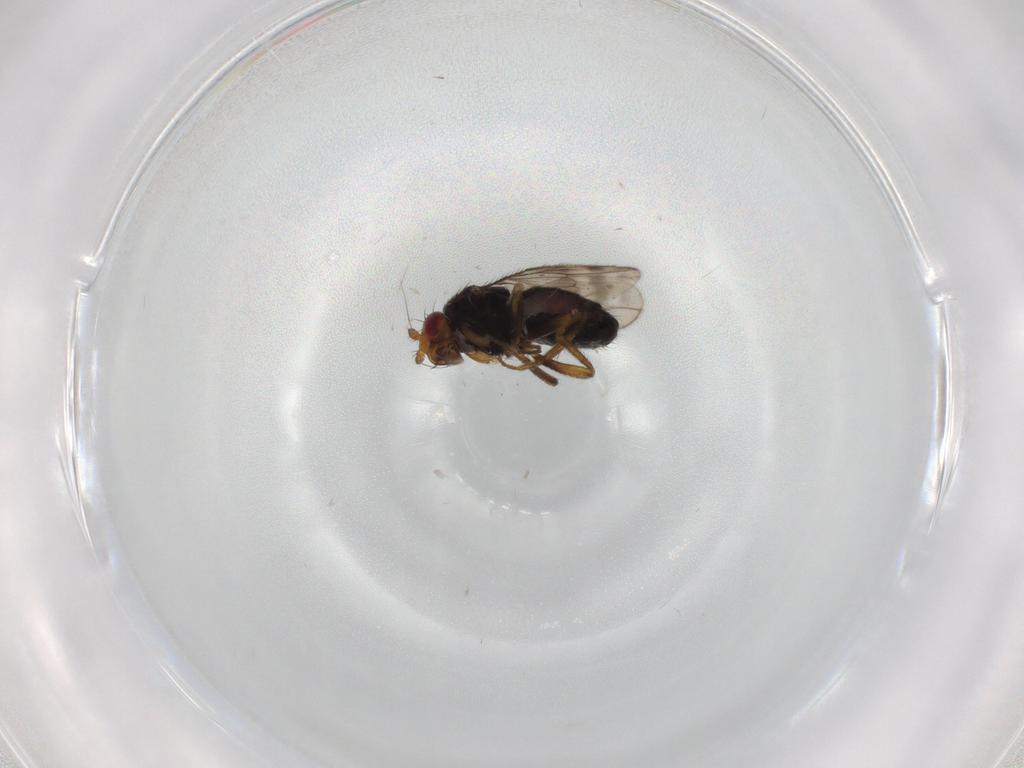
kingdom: Animalia
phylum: Arthropoda
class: Insecta
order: Diptera
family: Sphaeroceridae
